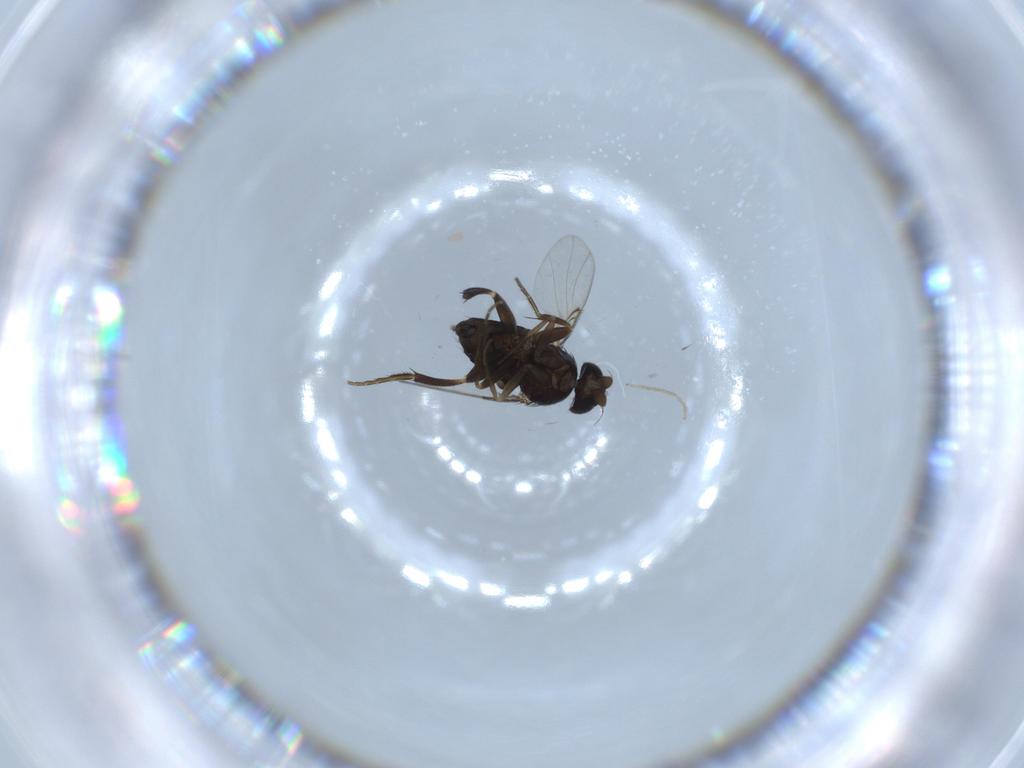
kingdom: Animalia
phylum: Arthropoda
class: Insecta
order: Diptera
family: Phoridae
